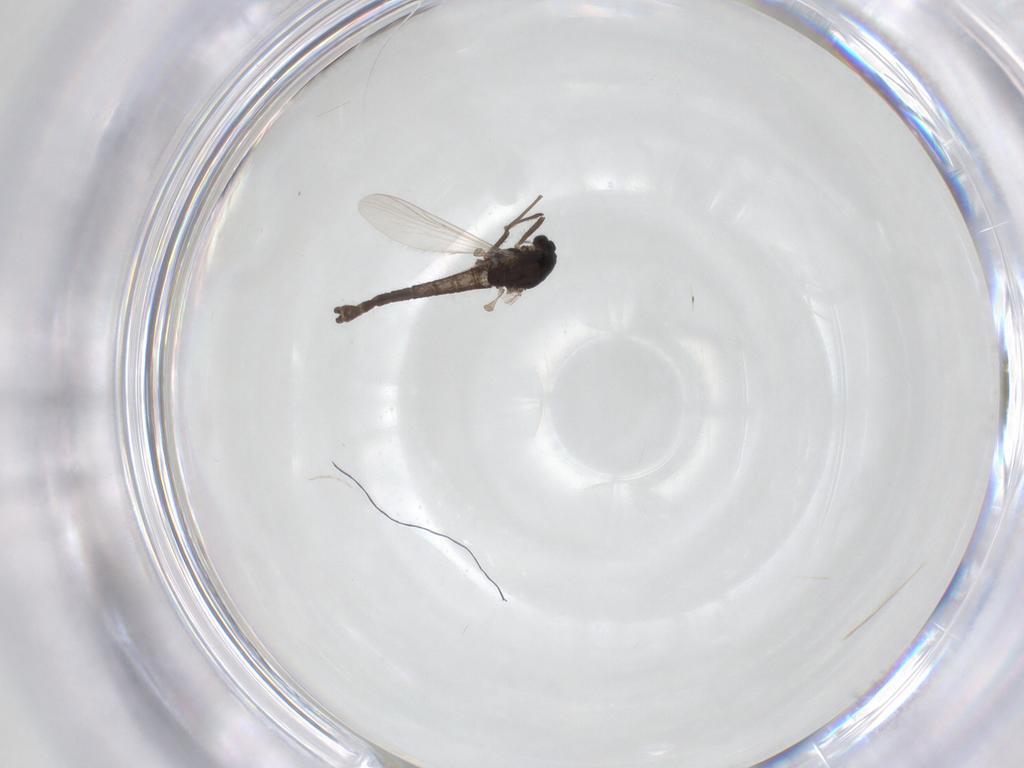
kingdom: Animalia
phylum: Arthropoda
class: Insecta
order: Diptera
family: Chironomidae
